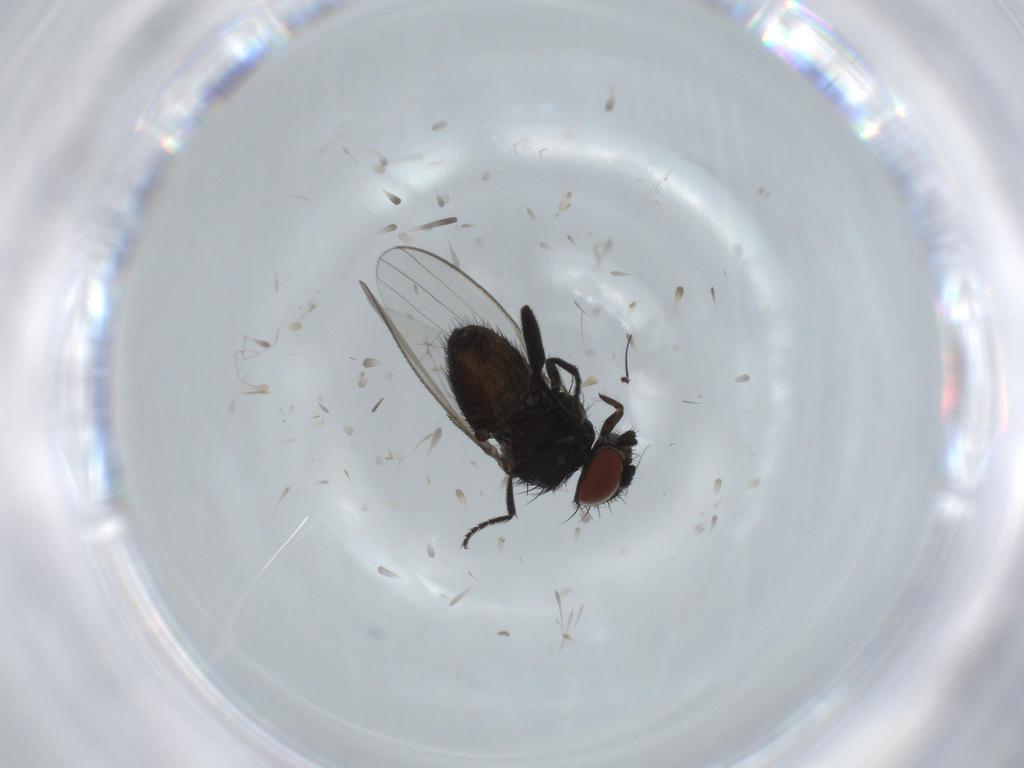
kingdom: Animalia
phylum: Arthropoda
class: Insecta
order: Diptera
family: Milichiidae
